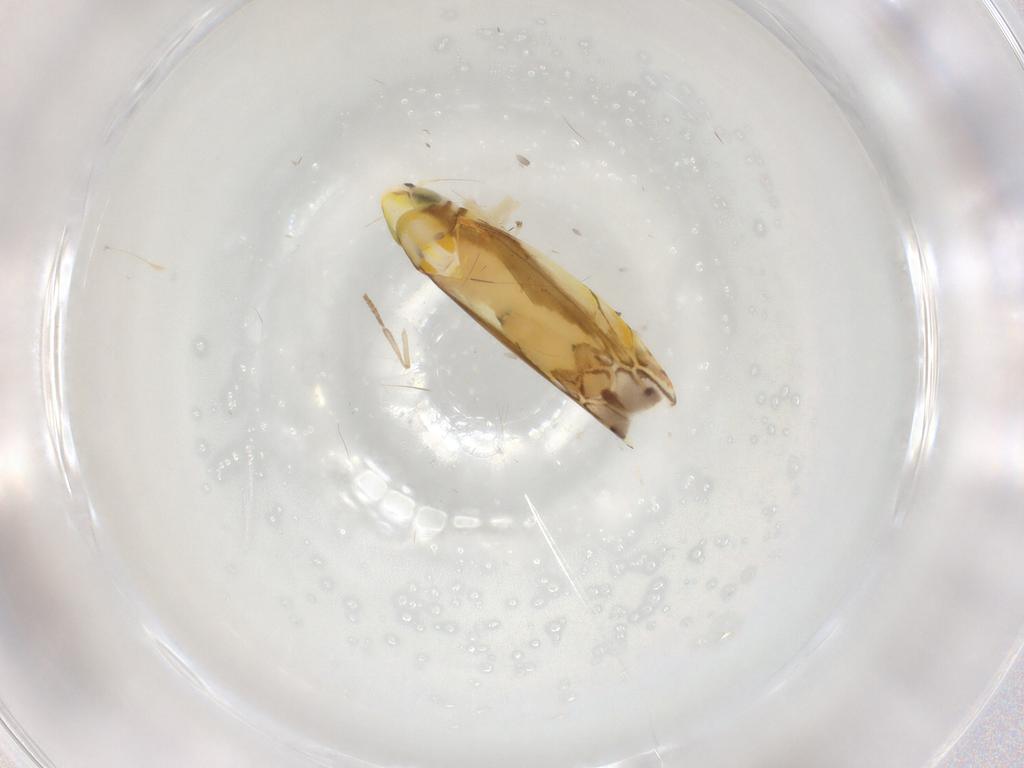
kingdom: Animalia
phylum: Arthropoda
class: Insecta
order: Hemiptera
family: Cicadellidae
